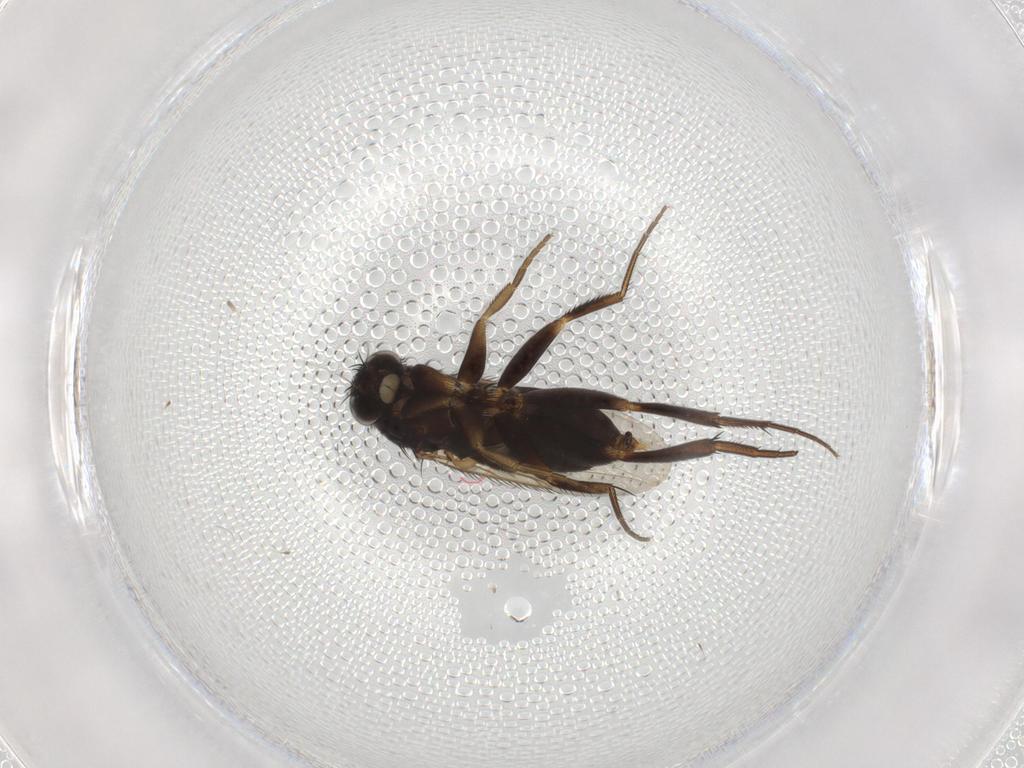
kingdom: Animalia
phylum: Arthropoda
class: Insecta
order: Diptera
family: Phoridae
